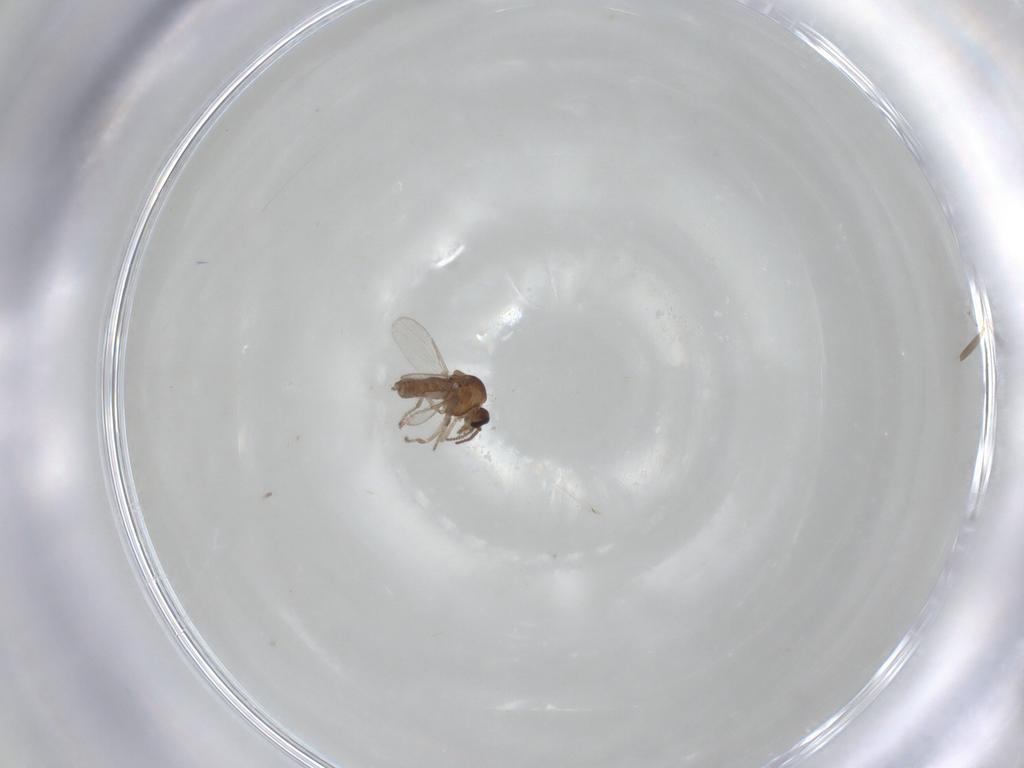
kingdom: Animalia
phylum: Arthropoda
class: Insecta
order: Diptera
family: Ceratopogonidae
